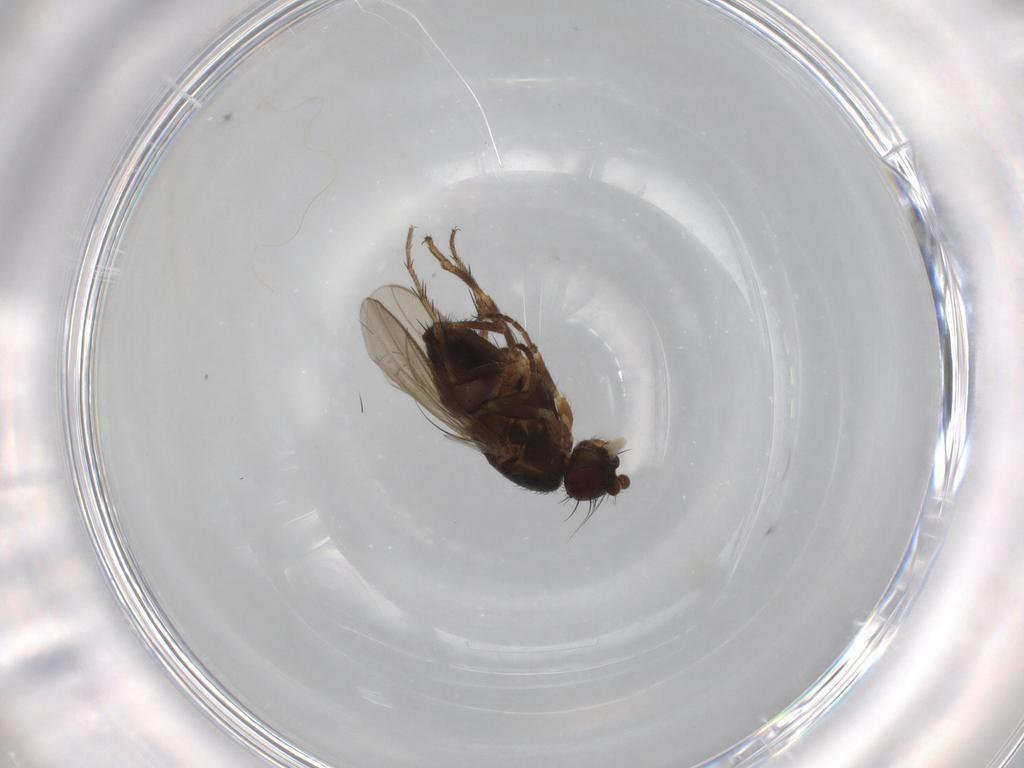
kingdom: Animalia
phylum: Arthropoda
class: Insecta
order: Diptera
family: Sphaeroceridae
